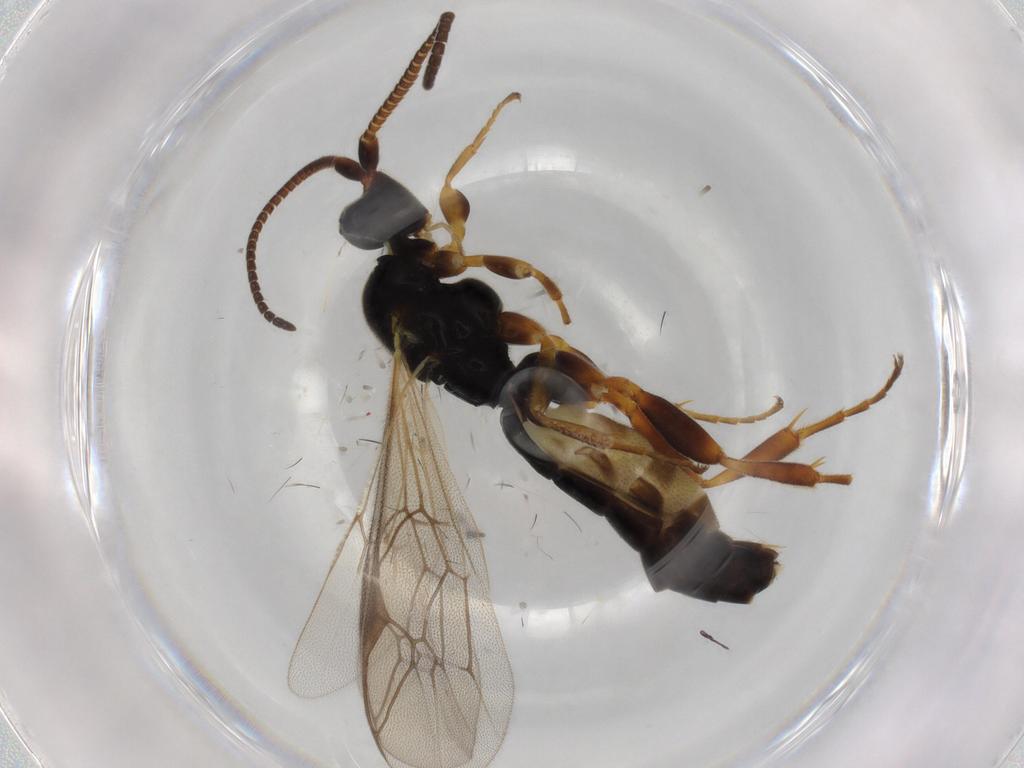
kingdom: Animalia
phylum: Arthropoda
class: Insecta
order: Hymenoptera
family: Ichneumonidae
